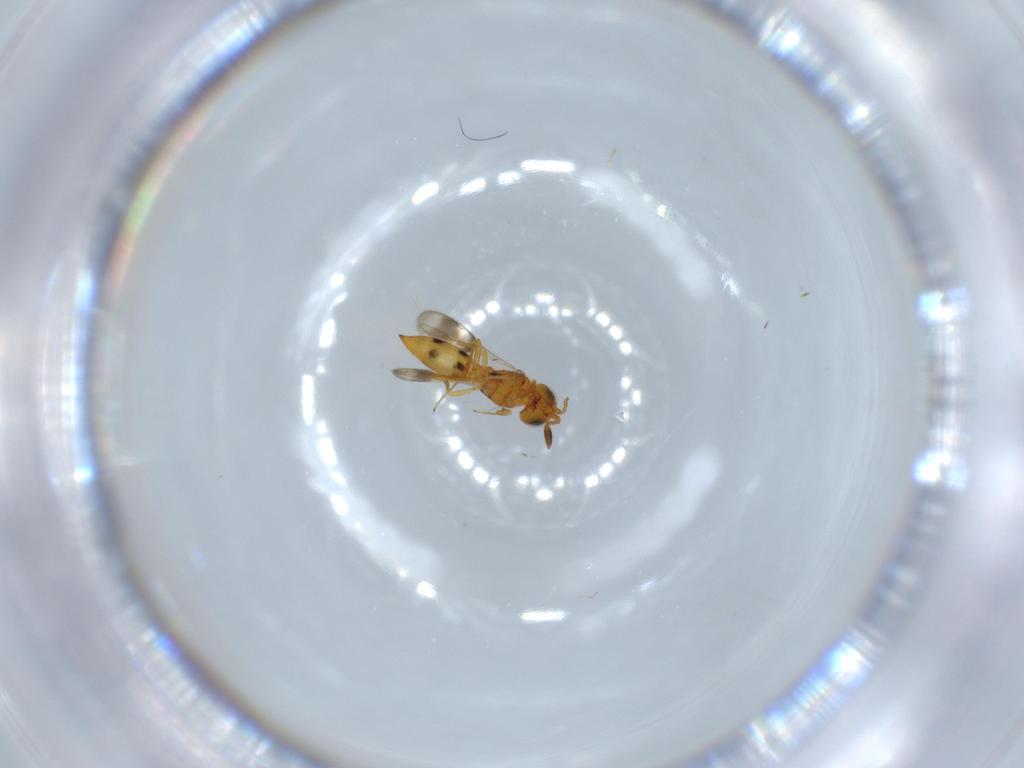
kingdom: Animalia
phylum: Arthropoda
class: Insecta
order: Hymenoptera
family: Scelionidae
